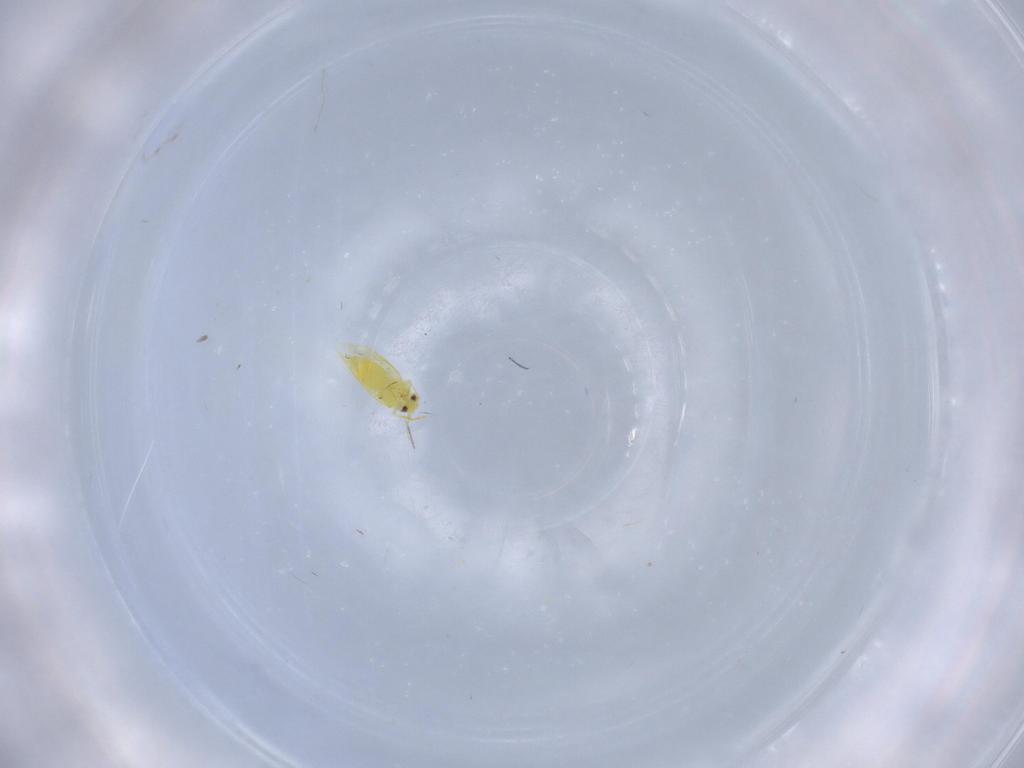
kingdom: Animalia
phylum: Arthropoda
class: Insecta
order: Hemiptera
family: Aleyrodidae
